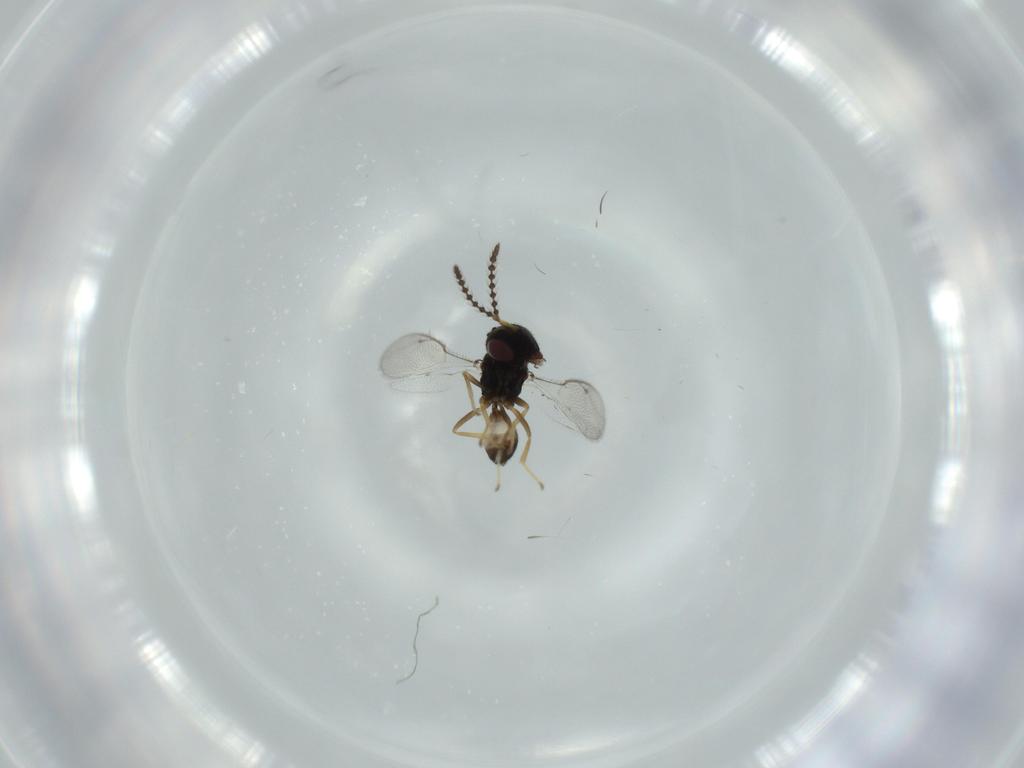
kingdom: Animalia
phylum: Arthropoda
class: Insecta
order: Hymenoptera
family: Pteromalidae
